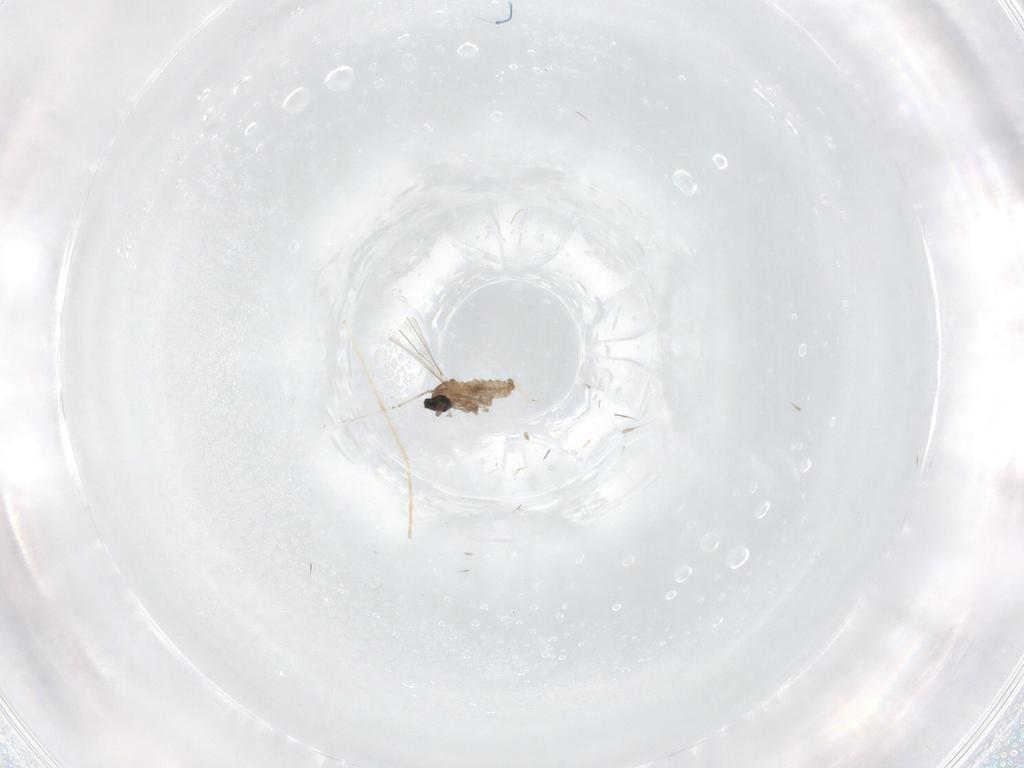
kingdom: Animalia
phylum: Arthropoda
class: Insecta
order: Diptera
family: Cecidomyiidae
